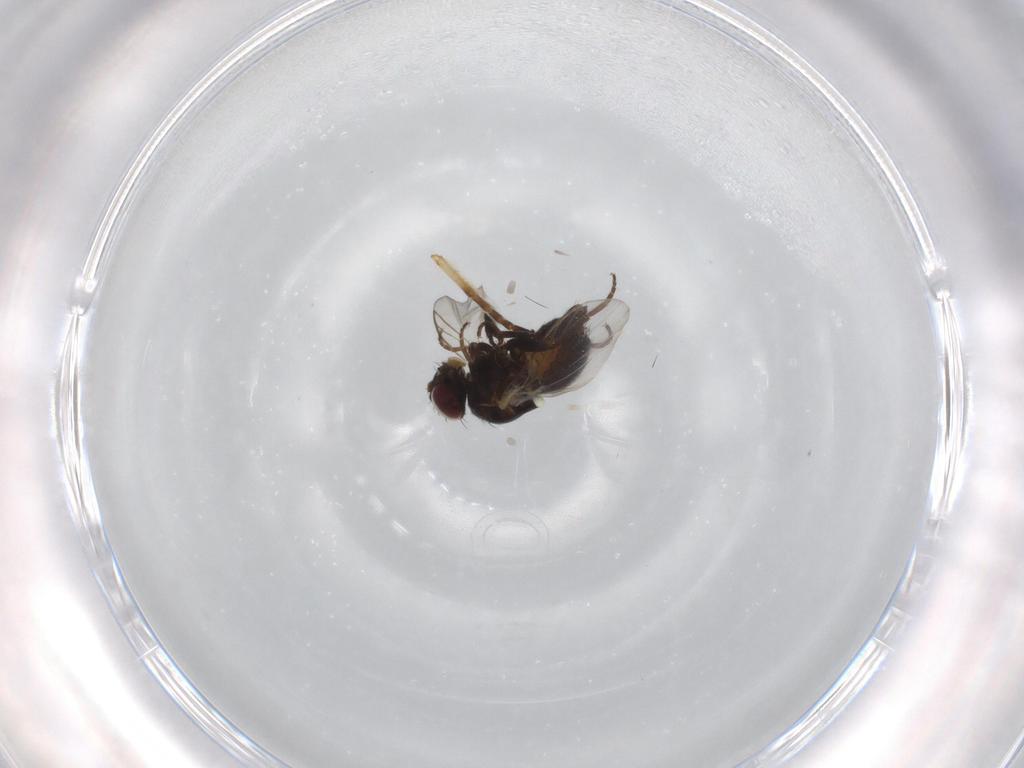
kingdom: Animalia
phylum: Arthropoda
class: Insecta
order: Diptera
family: Agromyzidae
